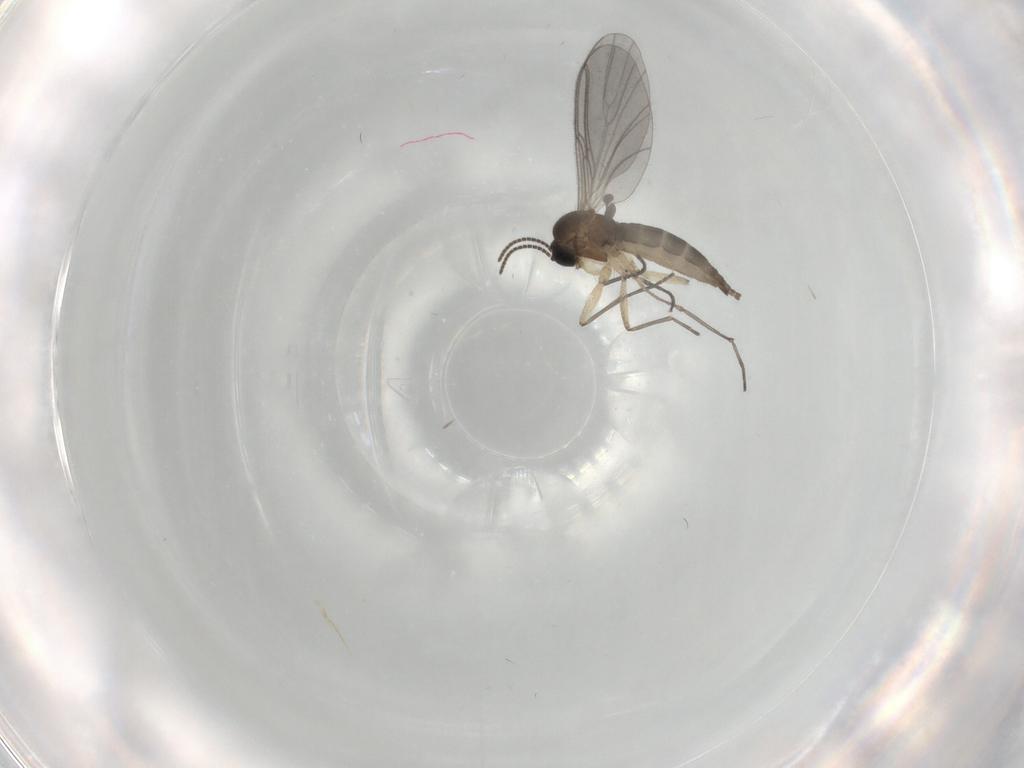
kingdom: Animalia
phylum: Arthropoda
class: Insecta
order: Diptera
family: Sciaridae
